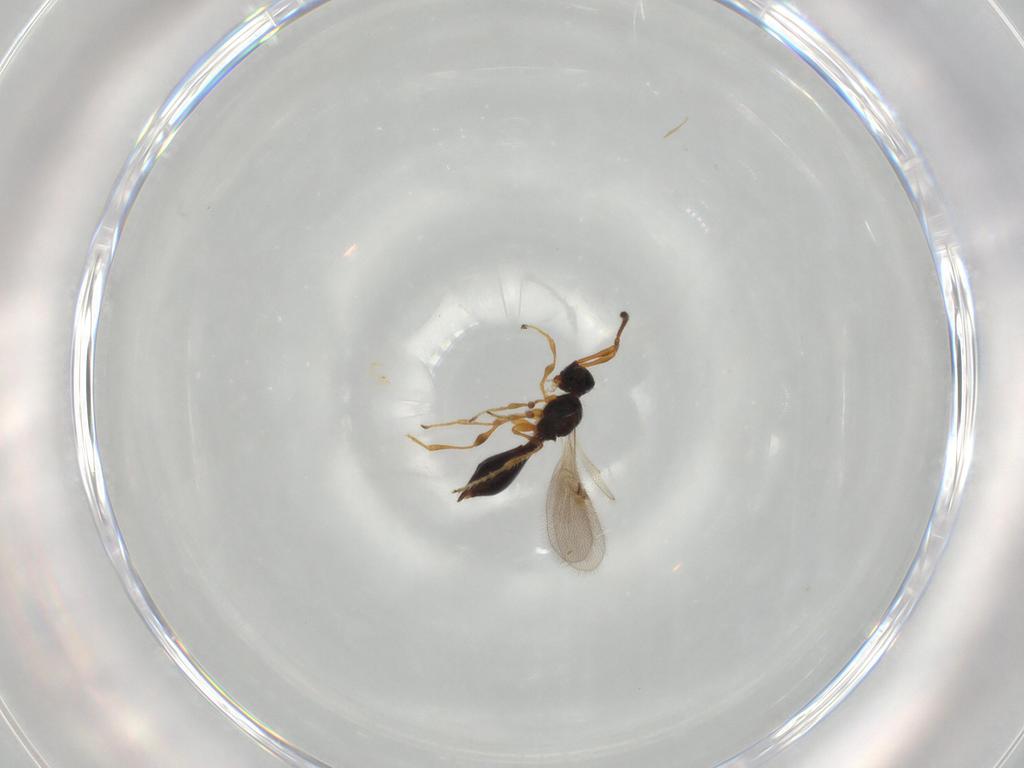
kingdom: Animalia
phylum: Arthropoda
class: Insecta
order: Hymenoptera
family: Diapriidae
